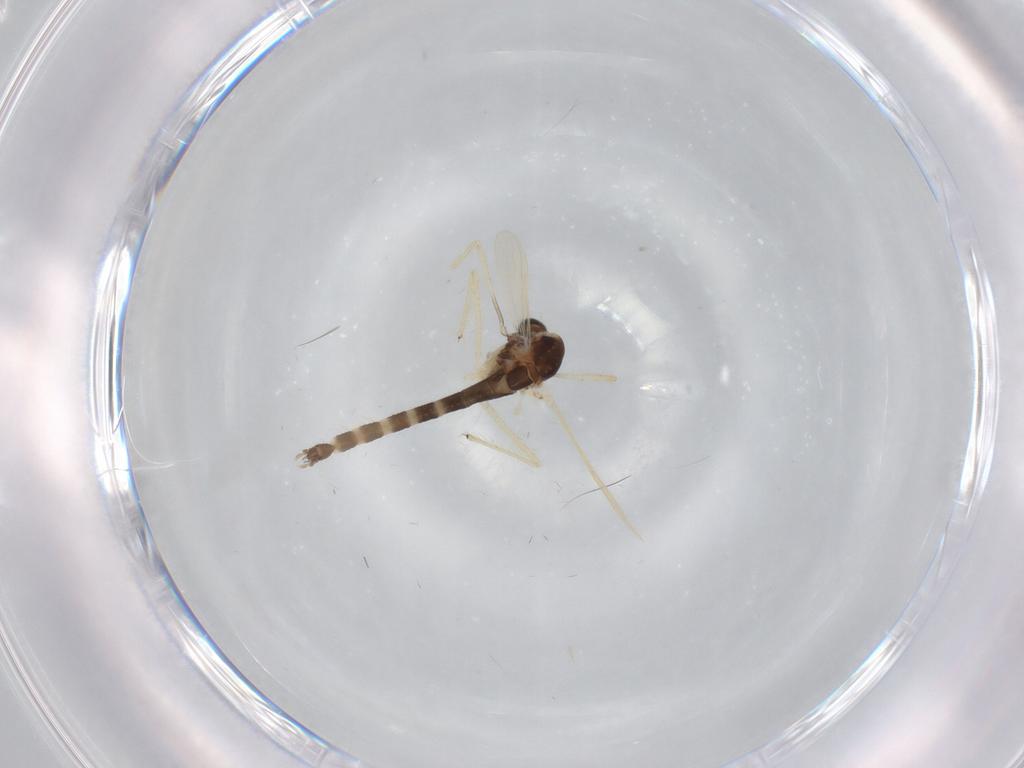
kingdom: Animalia
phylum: Arthropoda
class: Insecta
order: Diptera
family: Chironomidae
